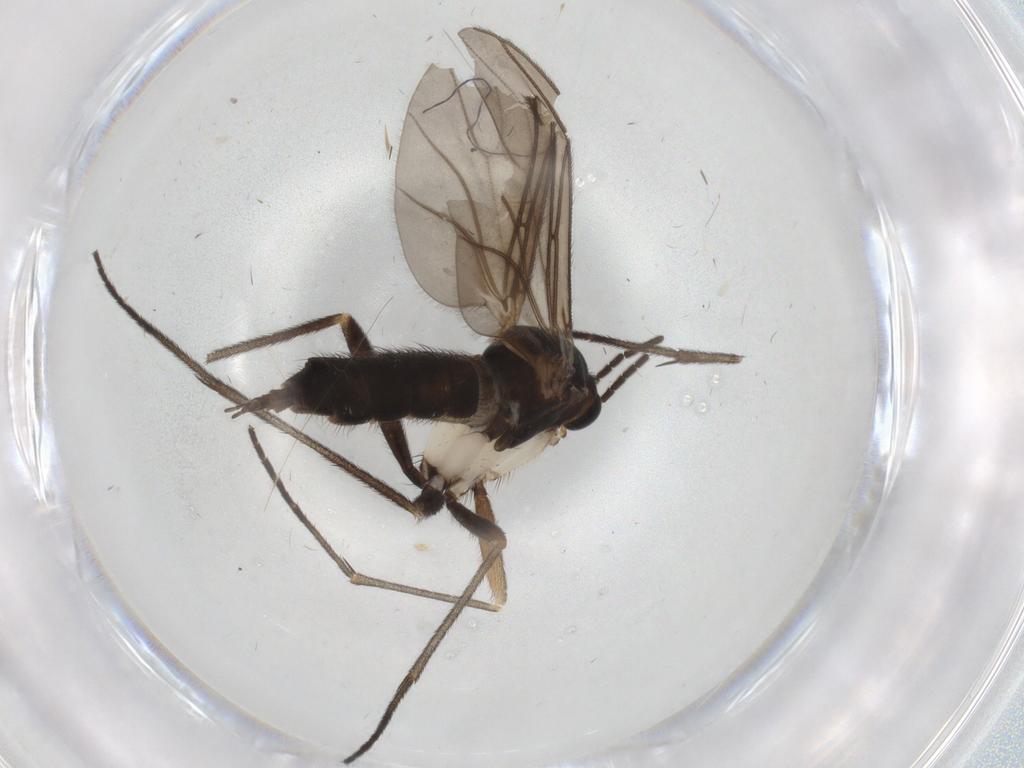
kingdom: Animalia
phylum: Arthropoda
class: Insecta
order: Diptera
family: Sciaridae
